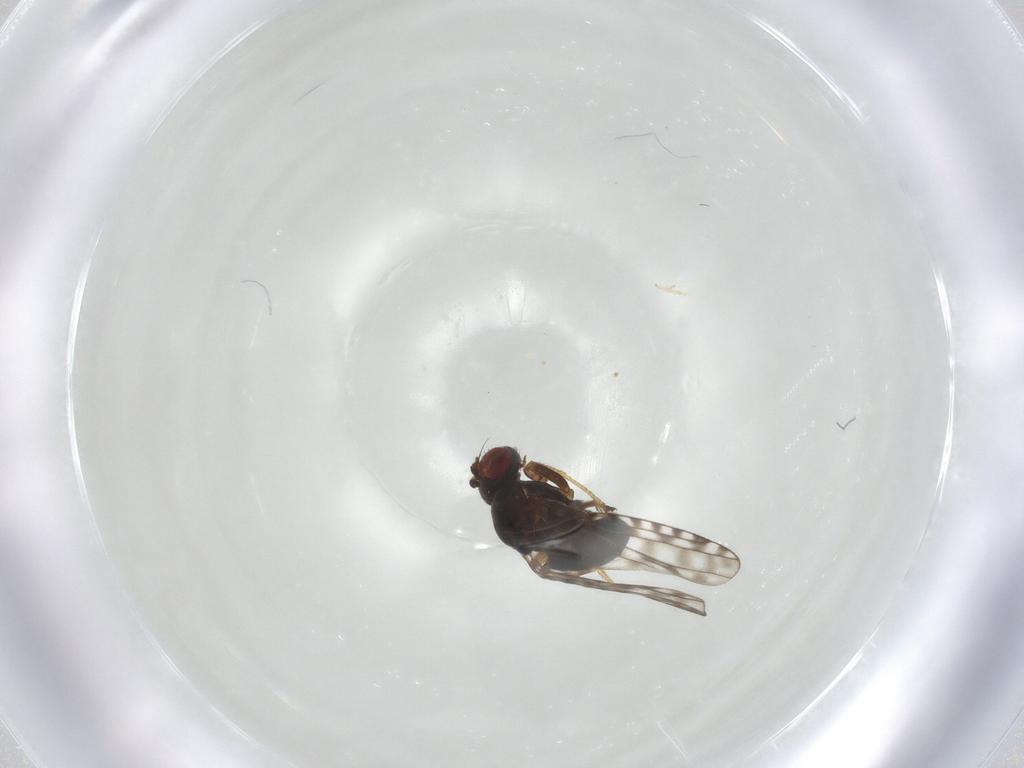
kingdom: Animalia
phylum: Arthropoda
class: Insecta
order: Diptera
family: Ephydridae
